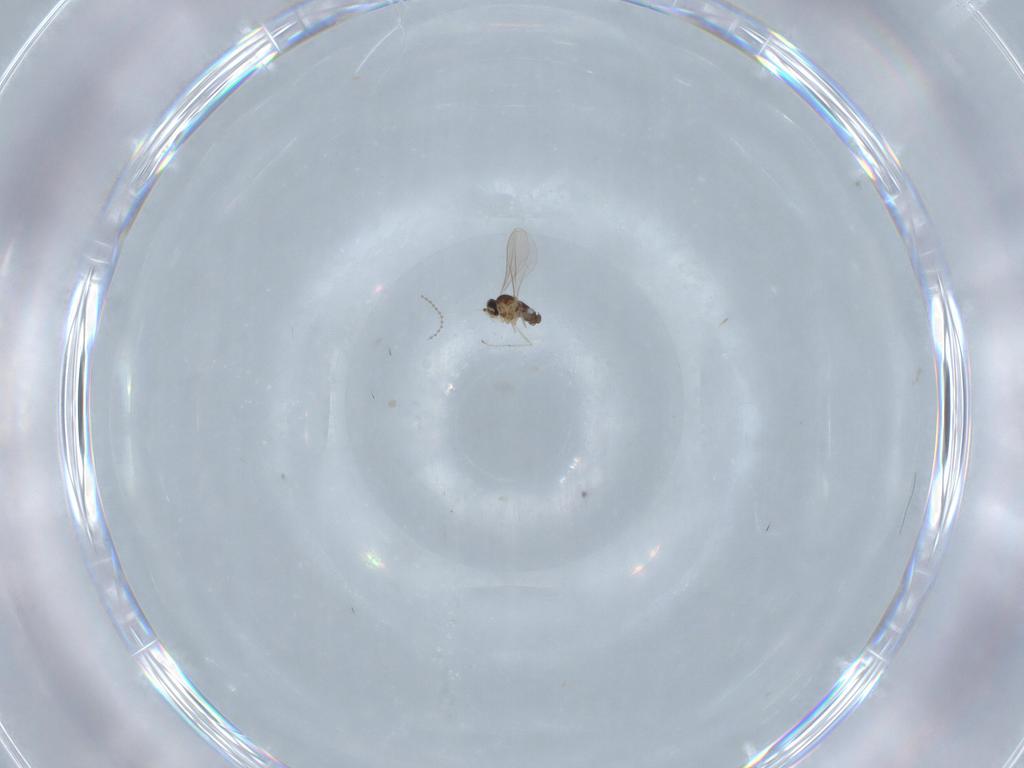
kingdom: Animalia
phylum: Arthropoda
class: Insecta
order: Diptera
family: Cecidomyiidae
